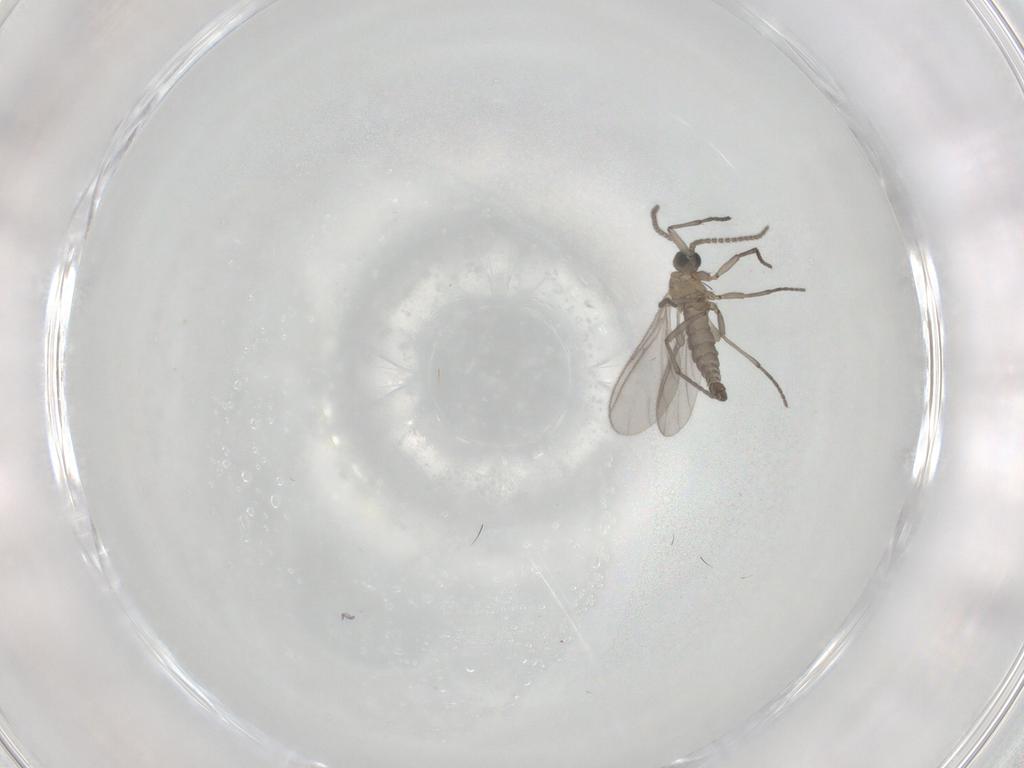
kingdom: Animalia
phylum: Arthropoda
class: Insecta
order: Diptera
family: Sciaridae
